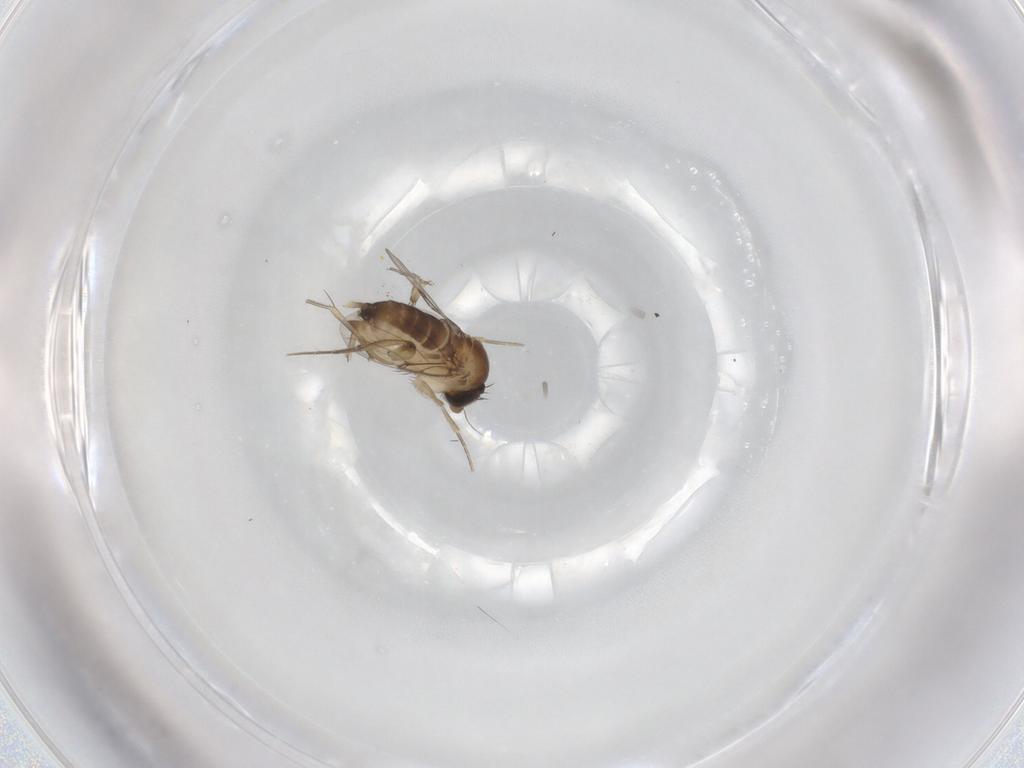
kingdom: Animalia
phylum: Arthropoda
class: Insecta
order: Diptera
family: Phoridae
